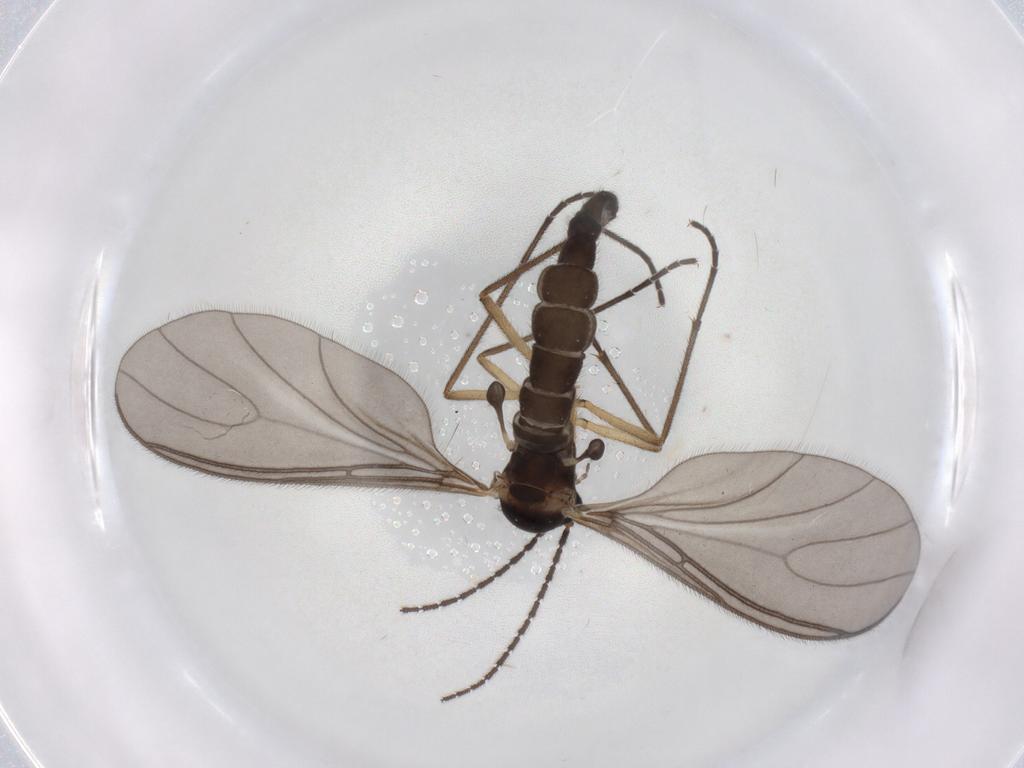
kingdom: Animalia
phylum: Arthropoda
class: Insecta
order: Diptera
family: Sciaridae
